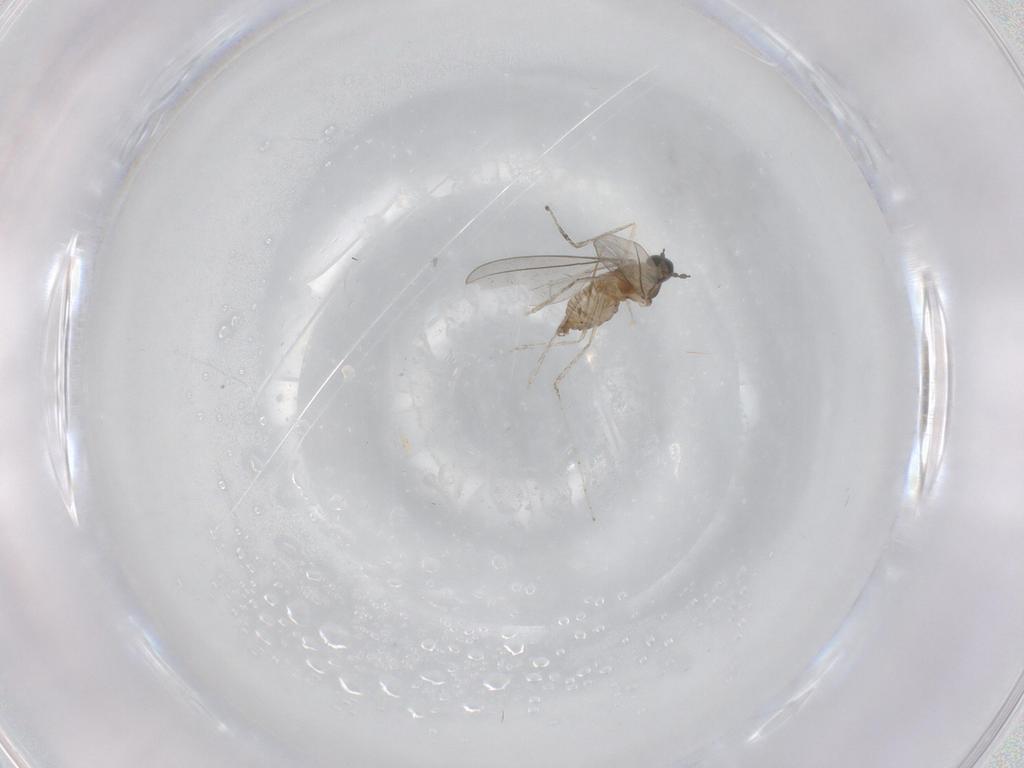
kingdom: Animalia
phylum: Arthropoda
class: Insecta
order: Diptera
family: Cecidomyiidae
